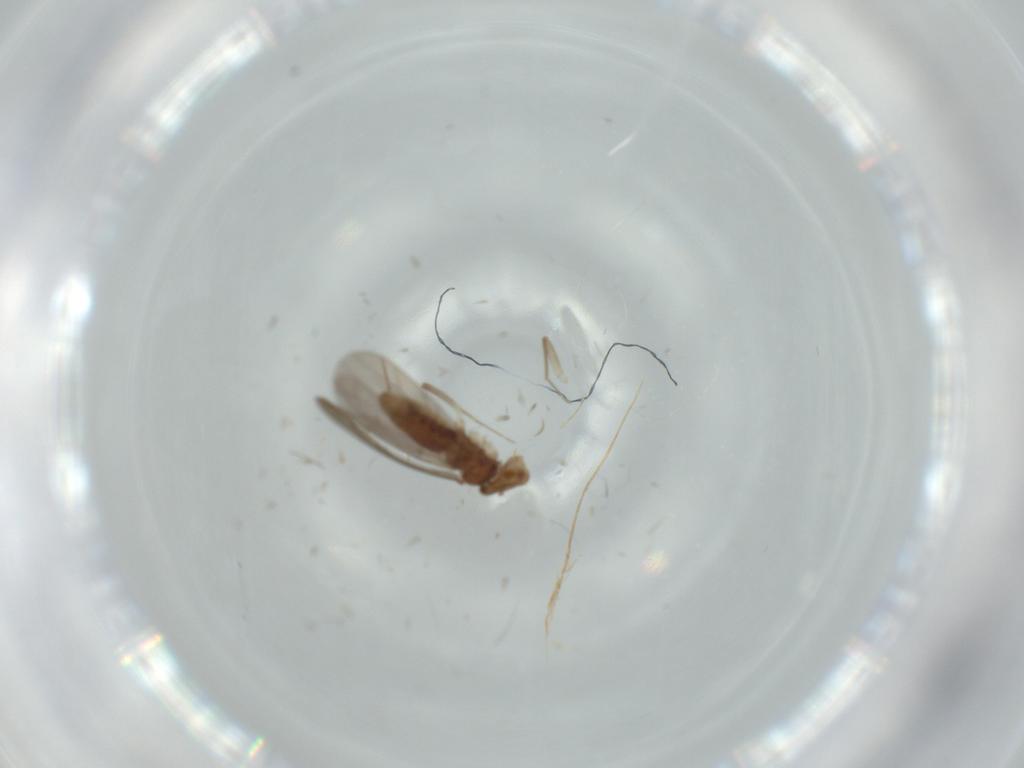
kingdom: Animalia
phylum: Arthropoda
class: Insecta
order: Psocodea
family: Lepidopsocidae
